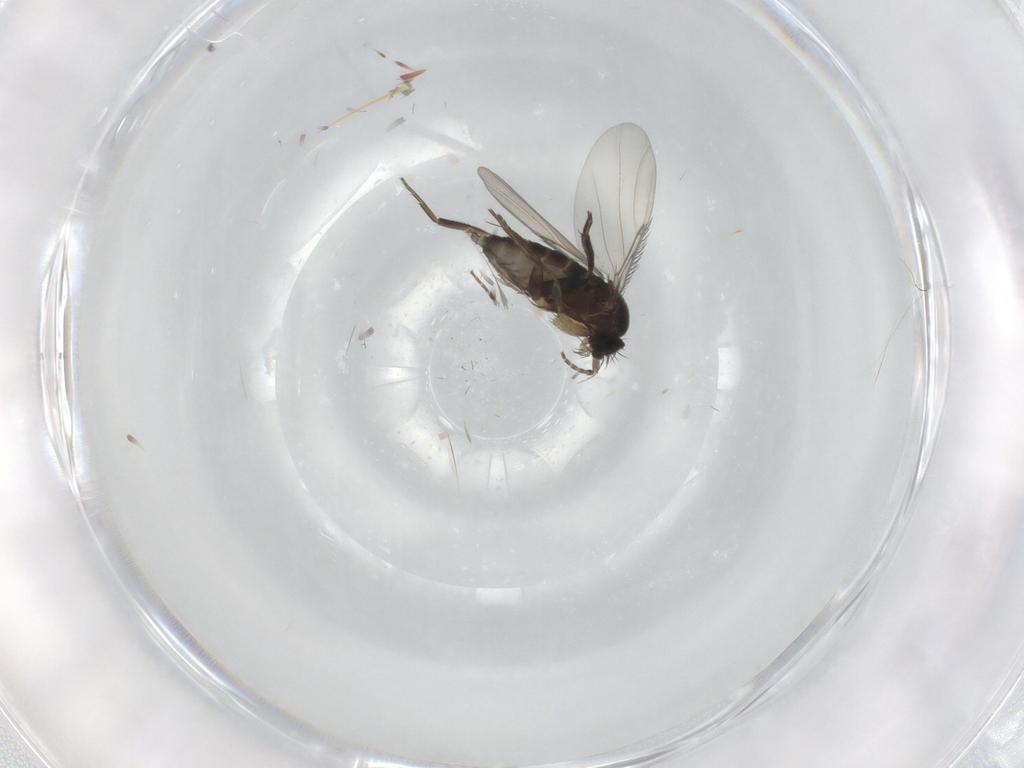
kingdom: Animalia
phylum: Arthropoda
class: Insecta
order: Diptera
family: Phoridae
